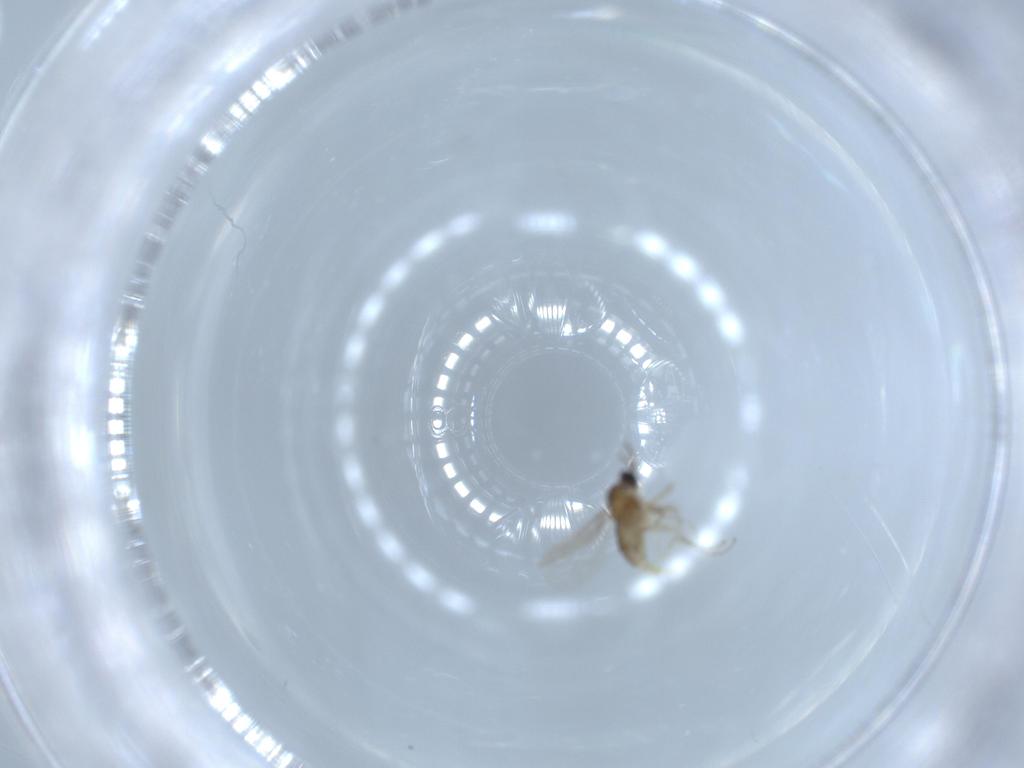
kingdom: Animalia
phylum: Arthropoda
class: Insecta
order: Diptera
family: Cecidomyiidae
